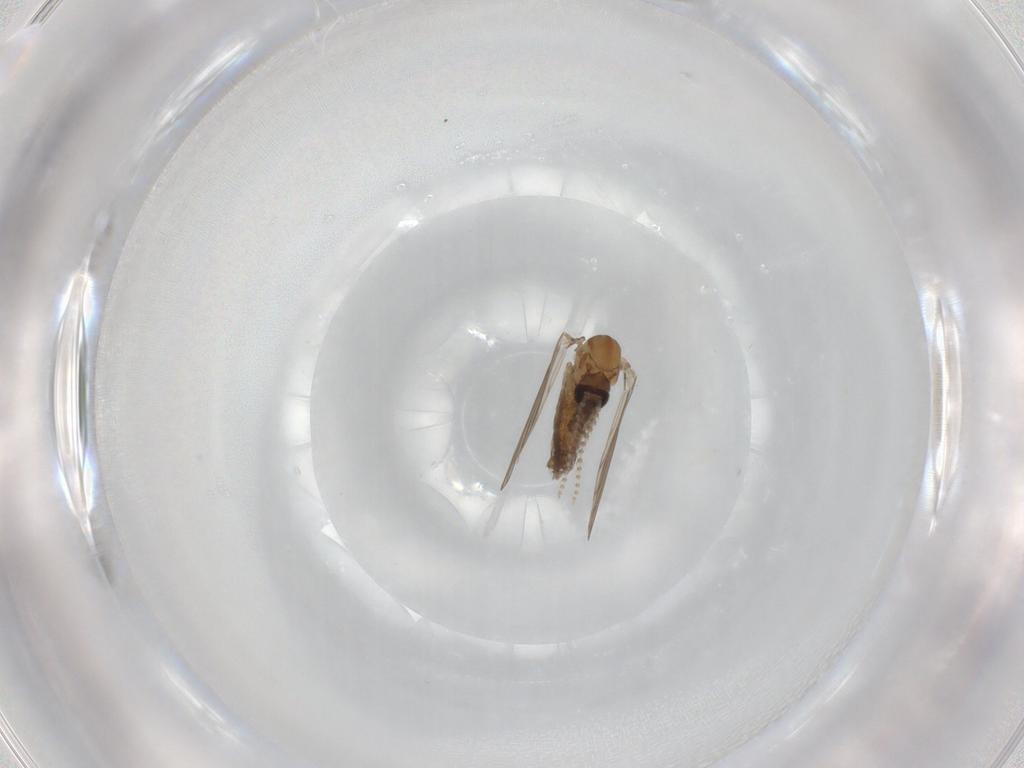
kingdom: Animalia
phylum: Arthropoda
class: Insecta
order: Diptera
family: Psychodidae
